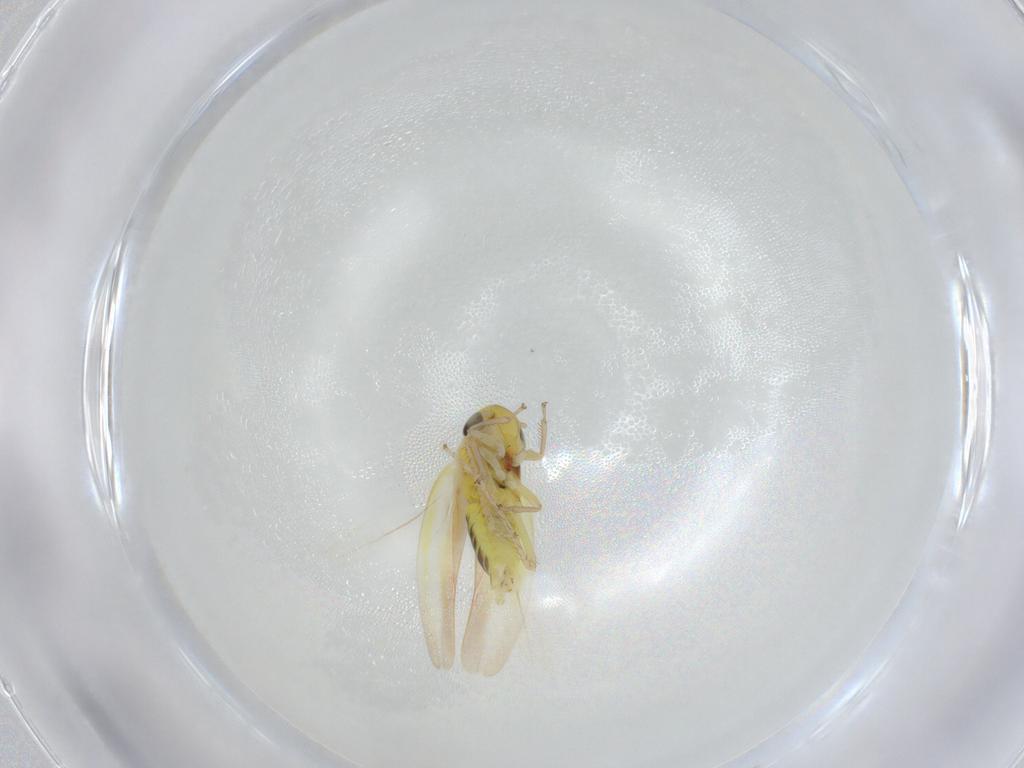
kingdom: Animalia
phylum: Arthropoda
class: Insecta
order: Hemiptera
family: Cicadellidae
